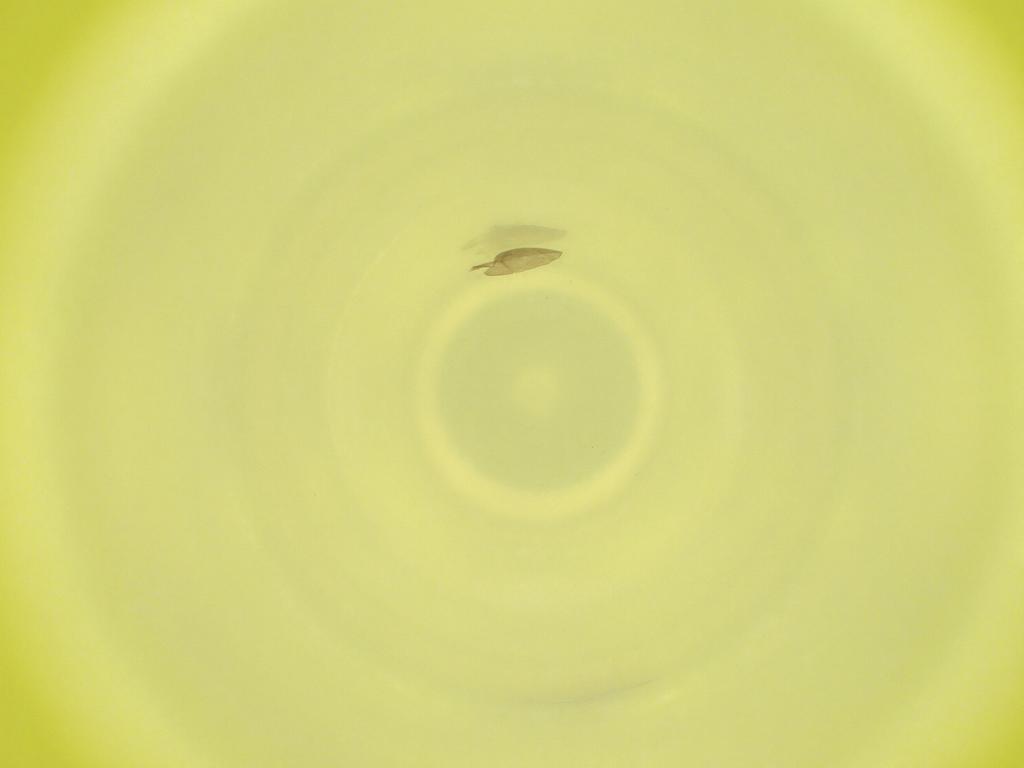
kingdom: Animalia
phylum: Arthropoda
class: Insecta
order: Diptera
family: Cecidomyiidae
